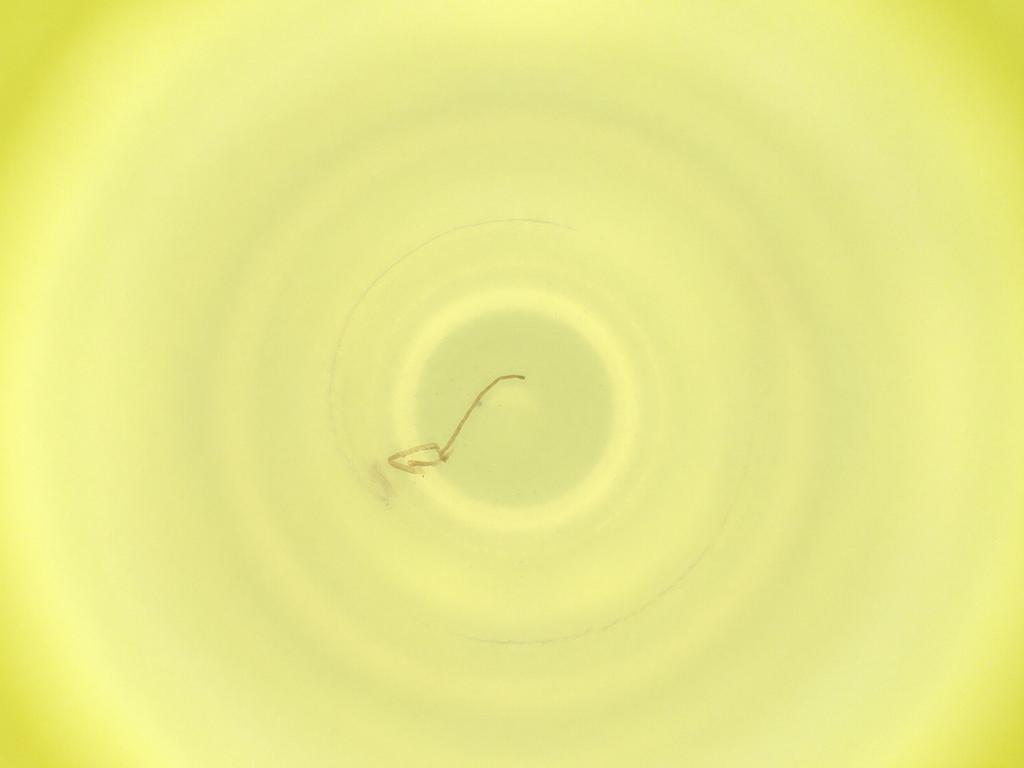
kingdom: Animalia
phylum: Arthropoda
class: Insecta
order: Diptera
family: Cecidomyiidae
